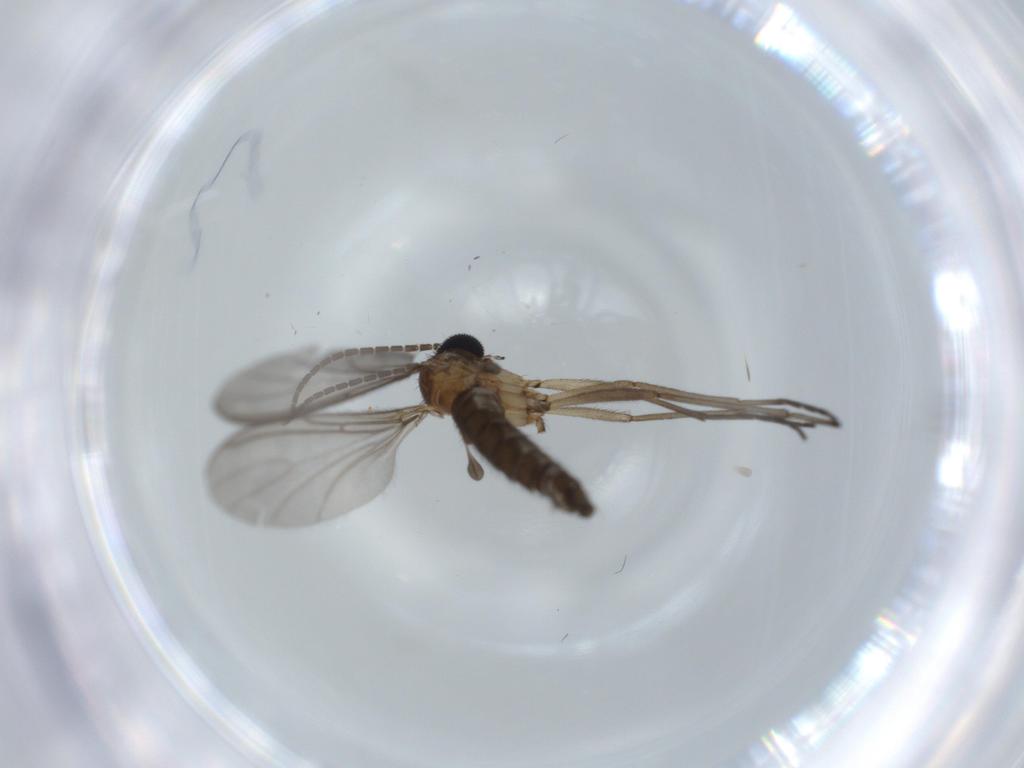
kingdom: Animalia
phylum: Arthropoda
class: Insecta
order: Diptera
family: Sciaridae
